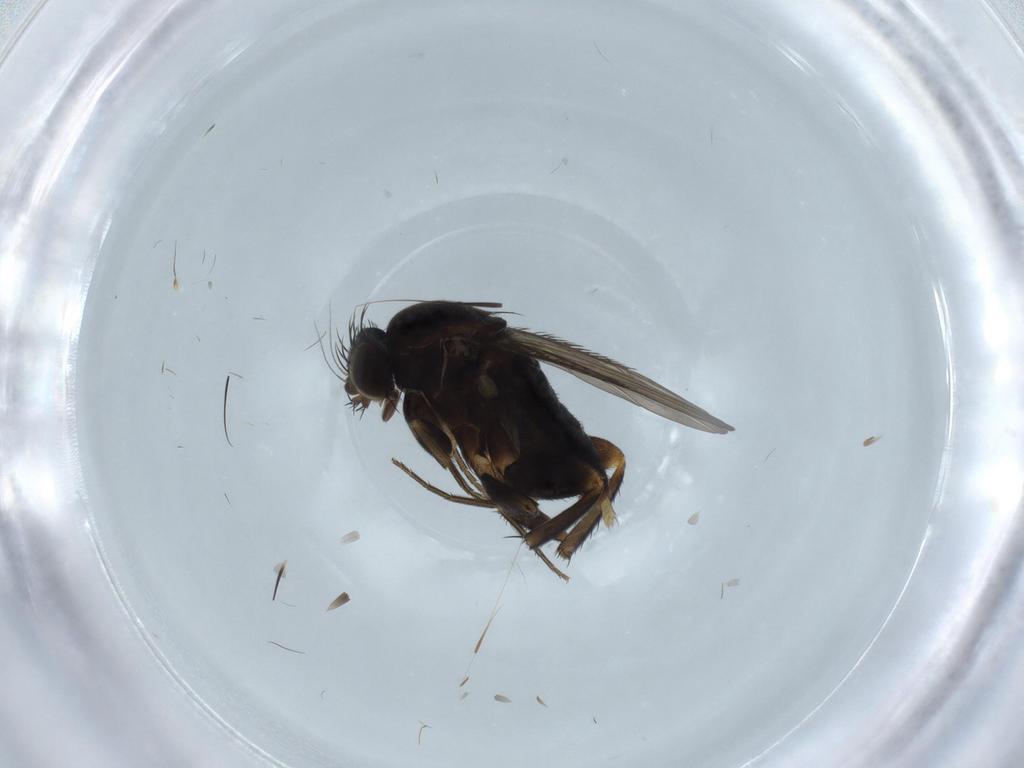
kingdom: Animalia
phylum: Arthropoda
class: Insecta
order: Diptera
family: Phoridae
